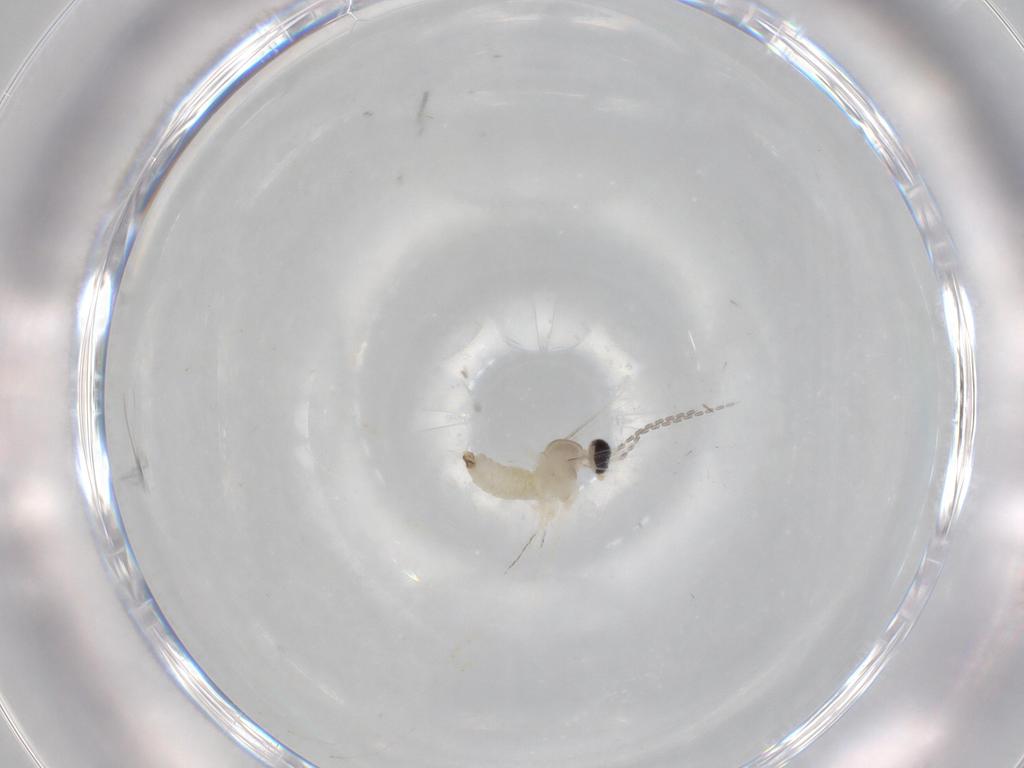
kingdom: Animalia
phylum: Arthropoda
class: Insecta
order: Diptera
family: Cecidomyiidae
